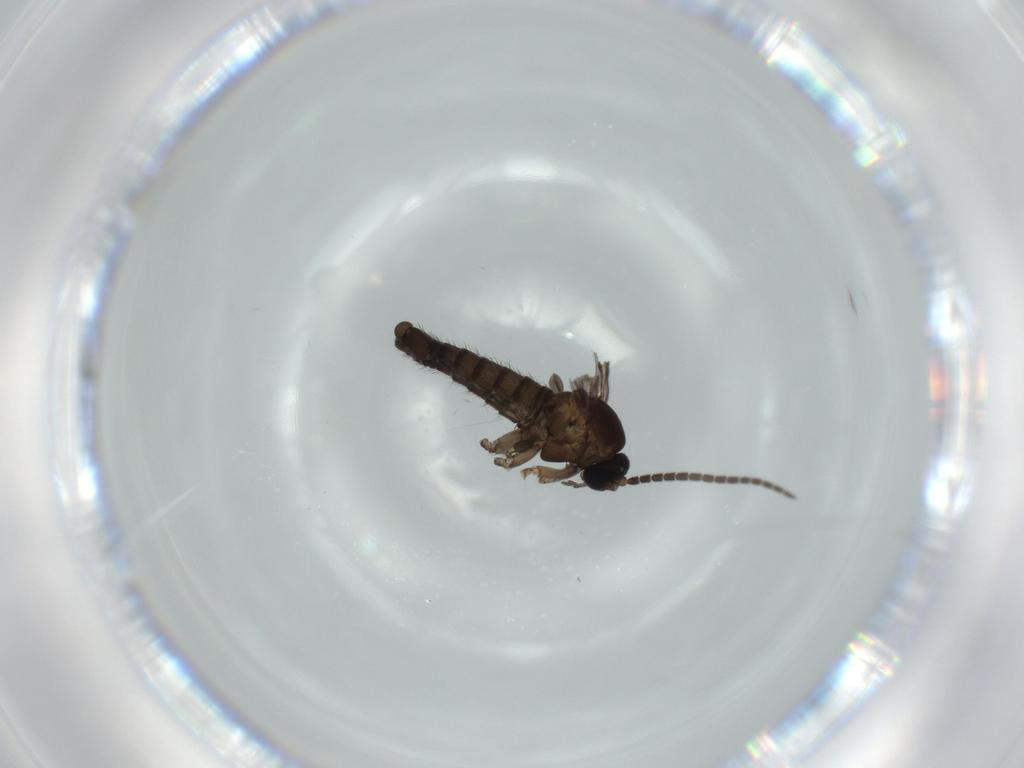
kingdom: Animalia
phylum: Arthropoda
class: Insecta
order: Diptera
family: Sciaridae
